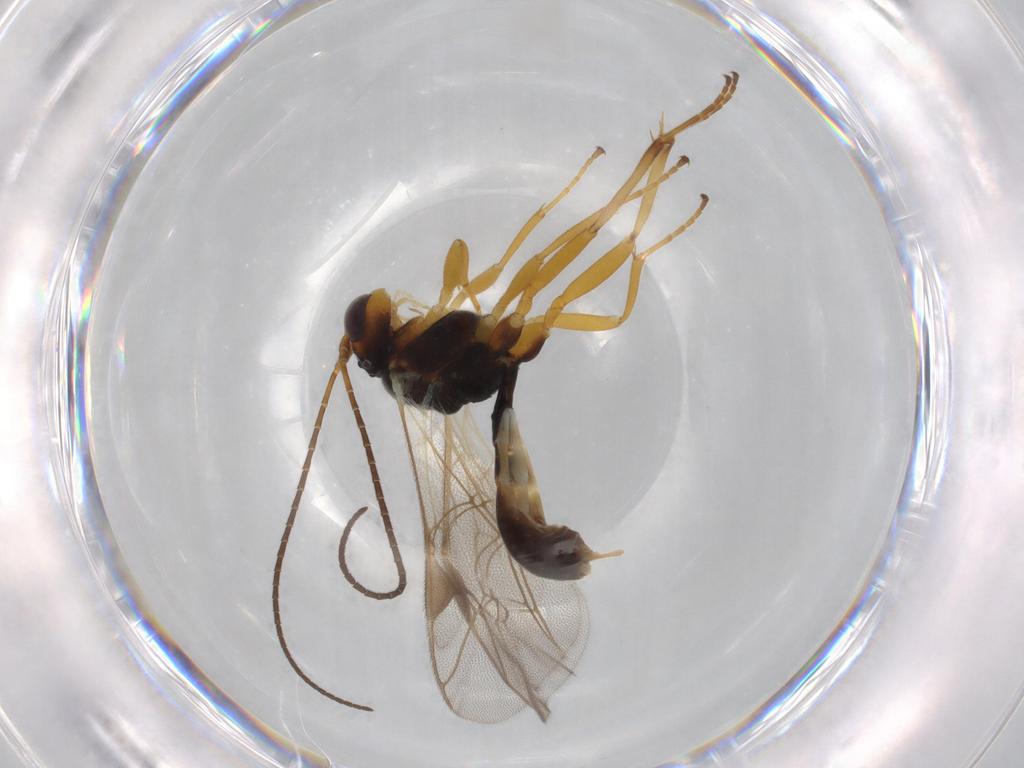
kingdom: Animalia
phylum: Arthropoda
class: Insecta
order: Hymenoptera
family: Ichneumonidae
